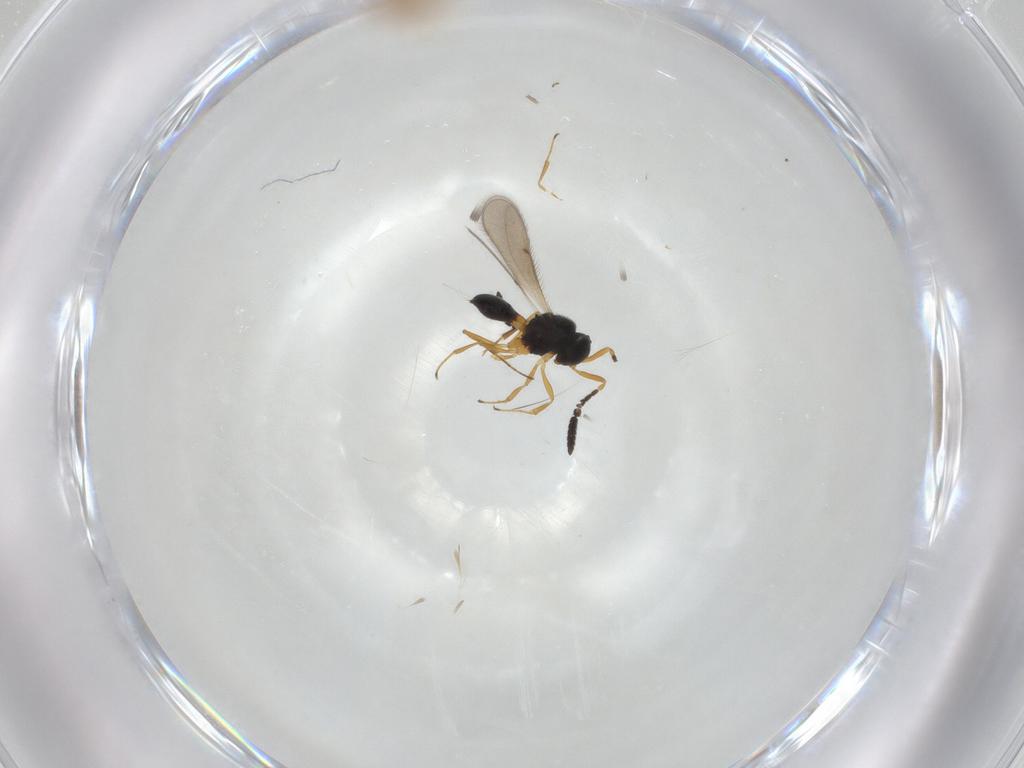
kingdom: Animalia
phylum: Arthropoda
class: Insecta
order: Hymenoptera
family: Scelionidae
